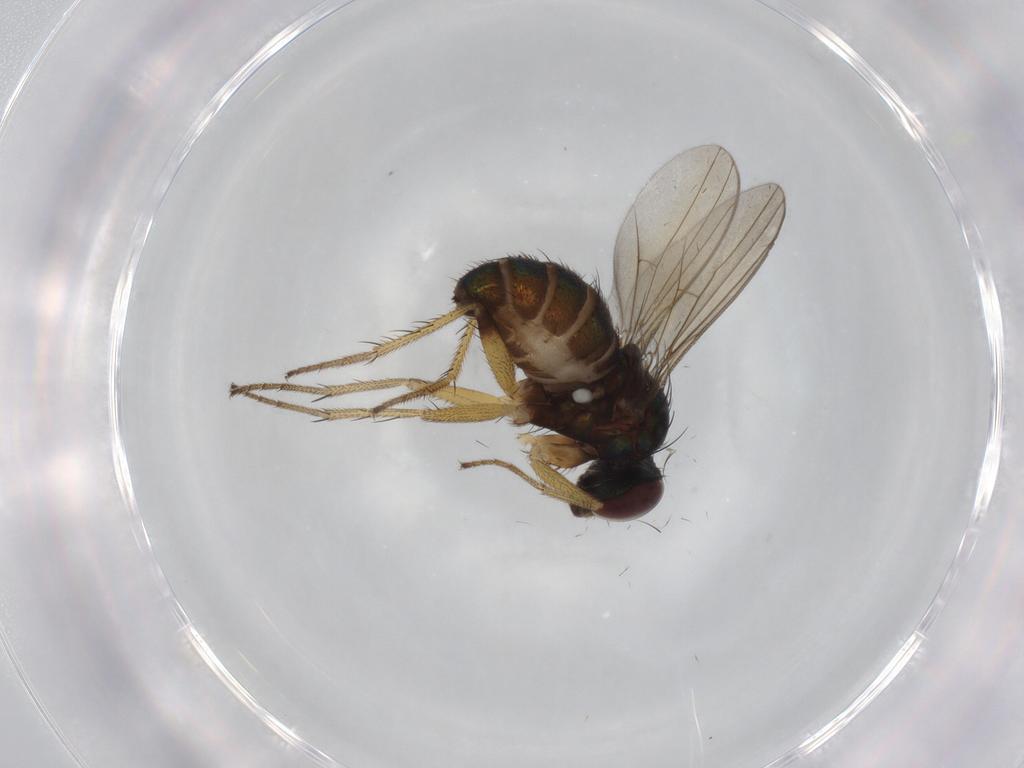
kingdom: Animalia
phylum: Arthropoda
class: Insecta
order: Diptera
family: Dolichopodidae
